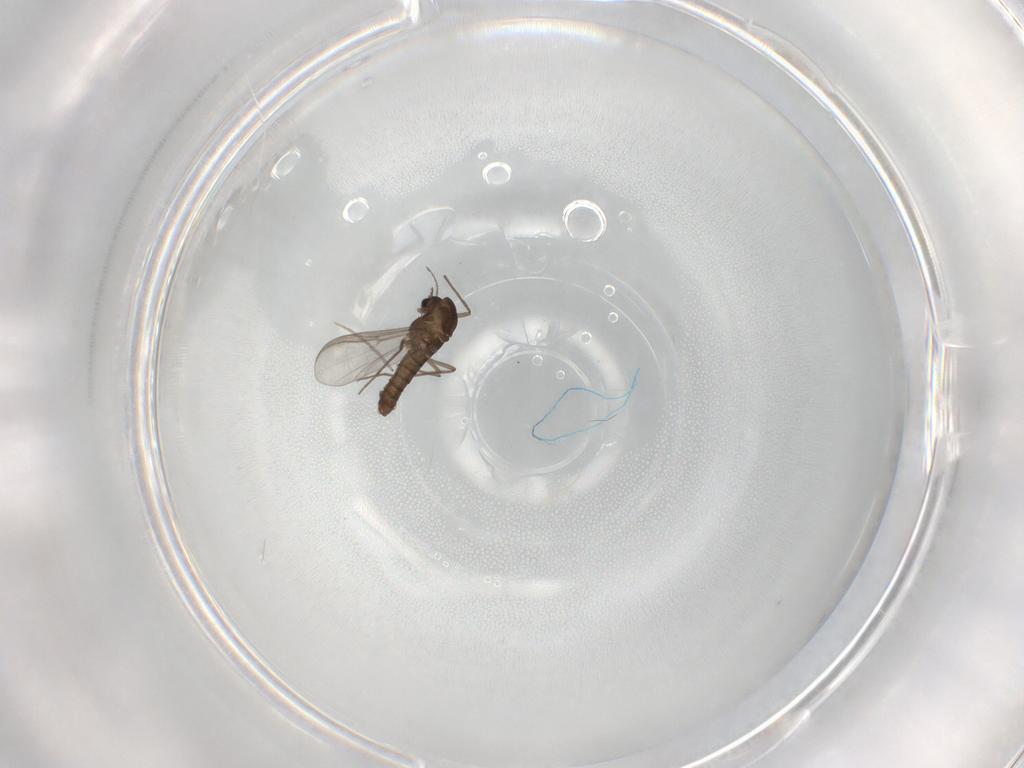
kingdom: Animalia
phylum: Arthropoda
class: Insecta
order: Diptera
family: Chironomidae
